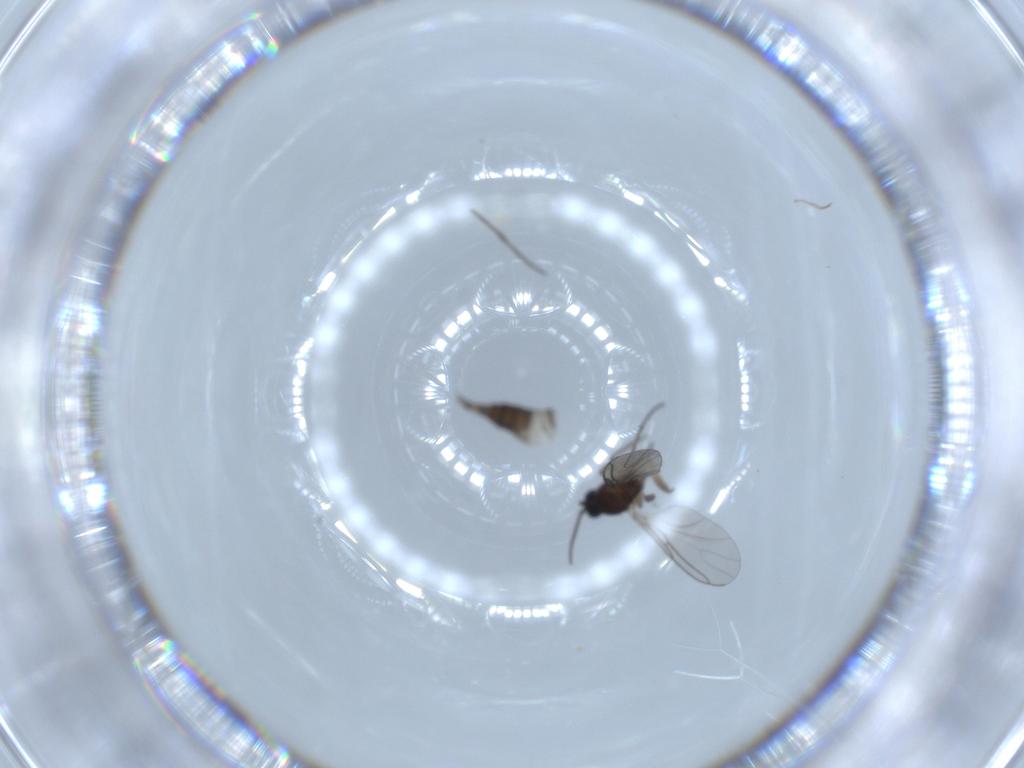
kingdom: Animalia
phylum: Arthropoda
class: Insecta
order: Diptera
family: Sciaridae
